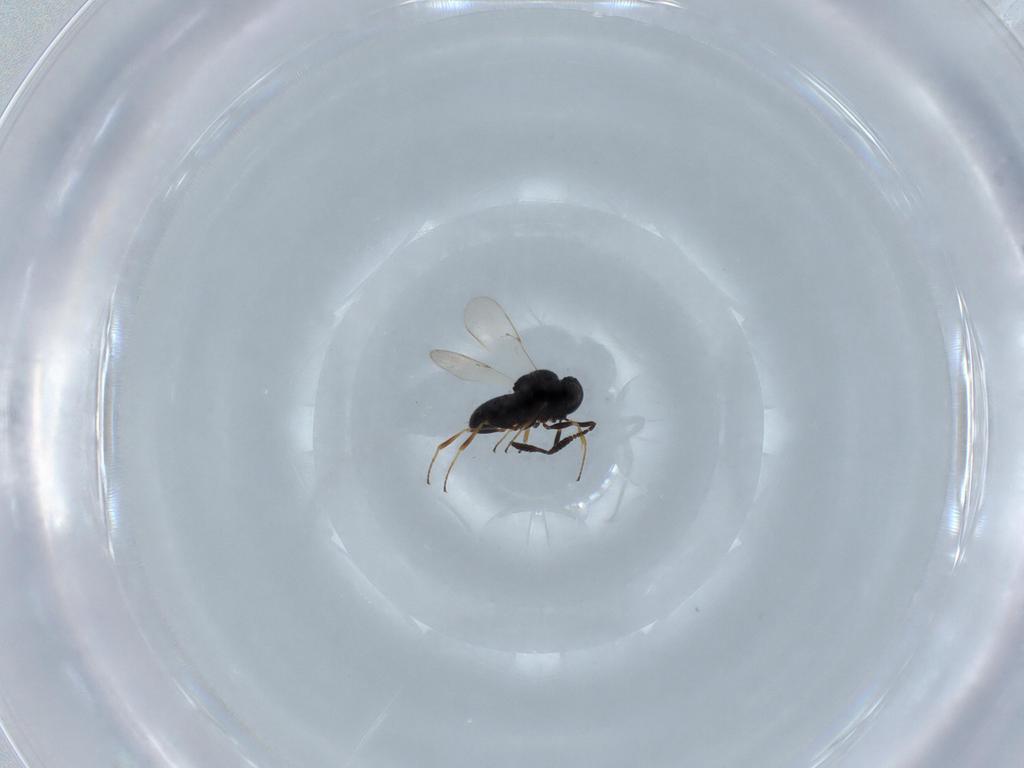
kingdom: Animalia
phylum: Arthropoda
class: Insecta
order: Hymenoptera
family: Scelionidae
